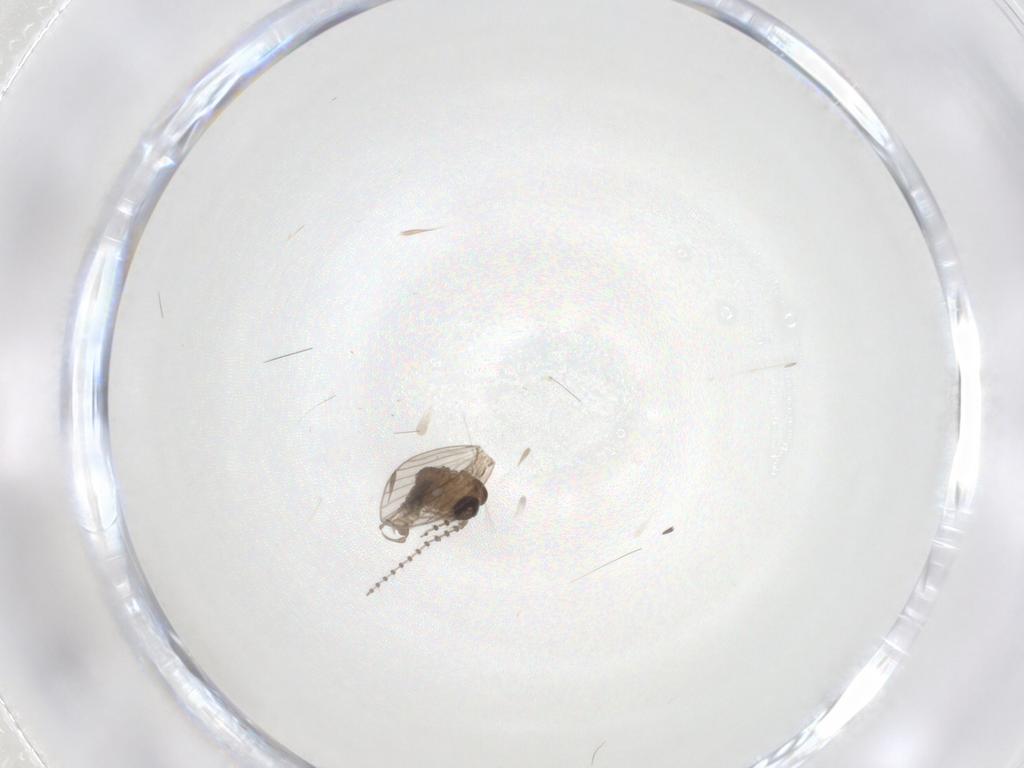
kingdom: Animalia
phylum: Arthropoda
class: Insecta
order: Diptera
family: Psychodidae
